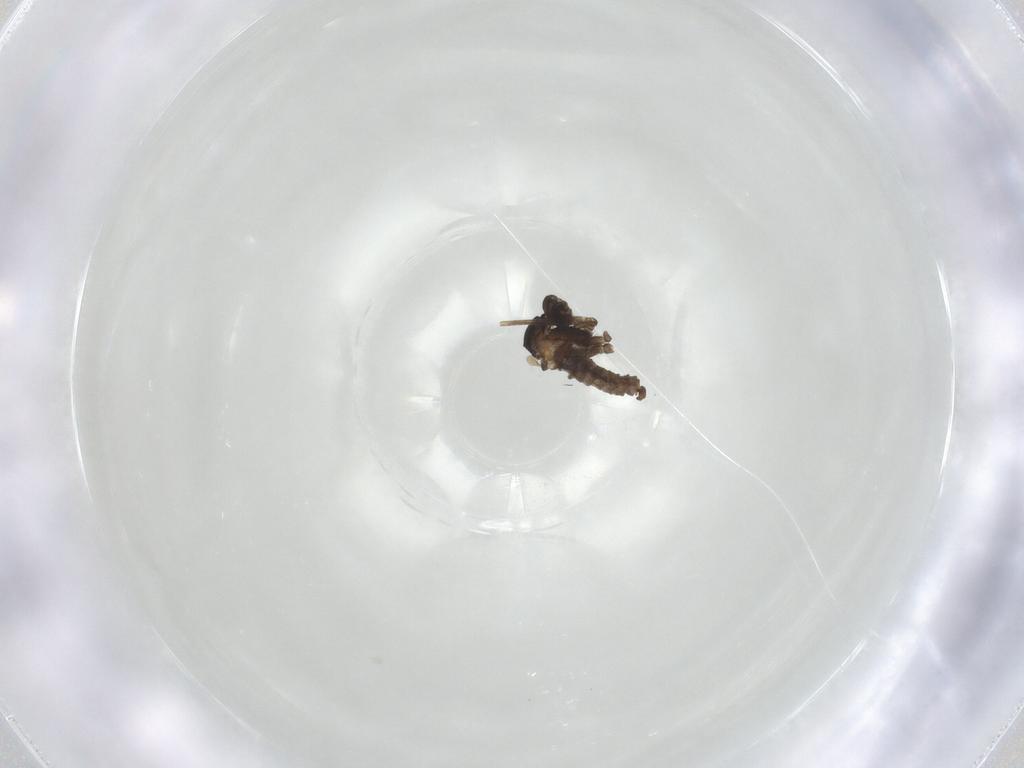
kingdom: Animalia
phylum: Arthropoda
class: Insecta
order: Diptera
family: Cecidomyiidae
